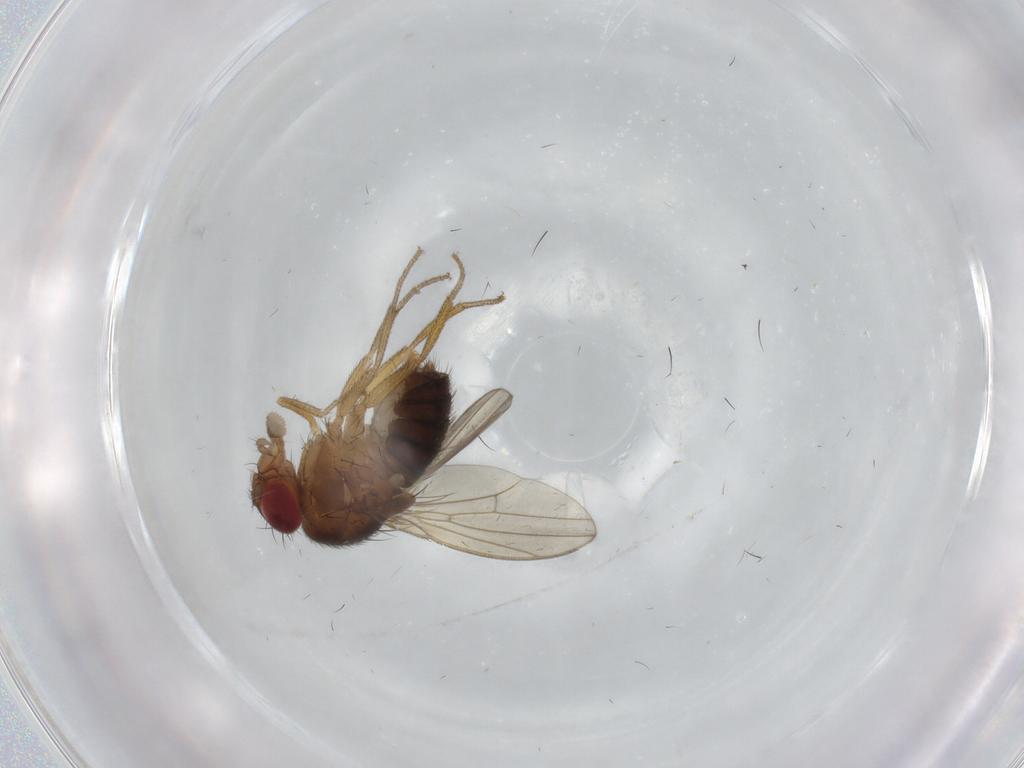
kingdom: Animalia
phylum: Arthropoda
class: Insecta
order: Diptera
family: Drosophilidae
